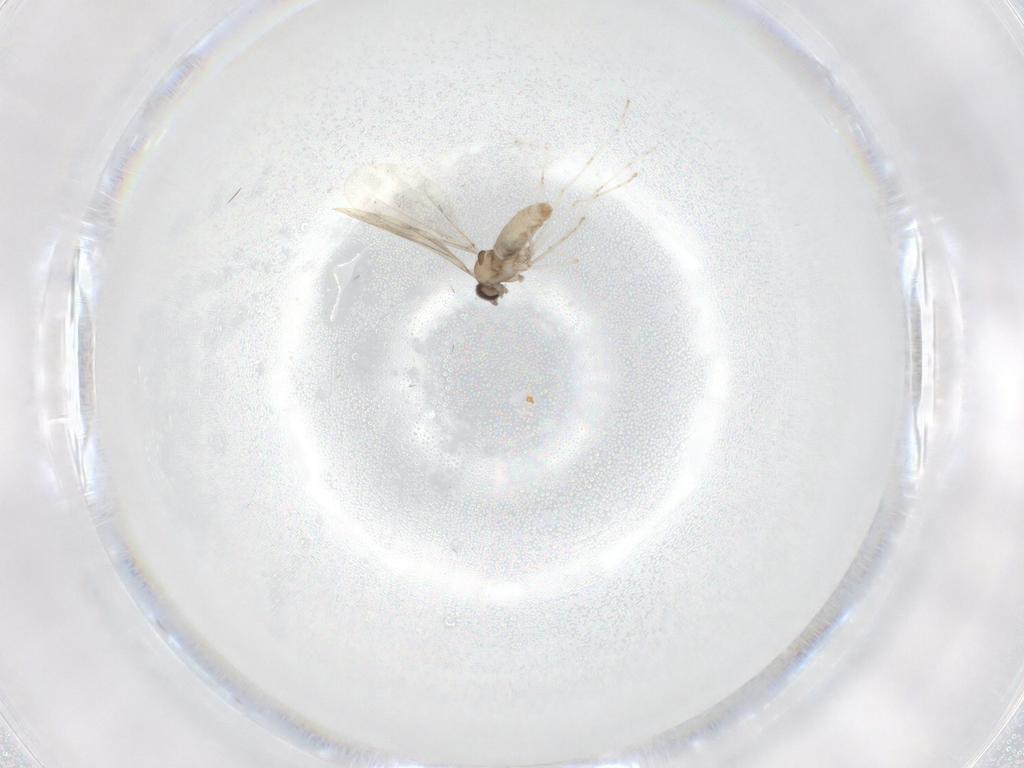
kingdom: Animalia
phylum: Arthropoda
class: Insecta
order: Diptera
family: Cecidomyiidae
